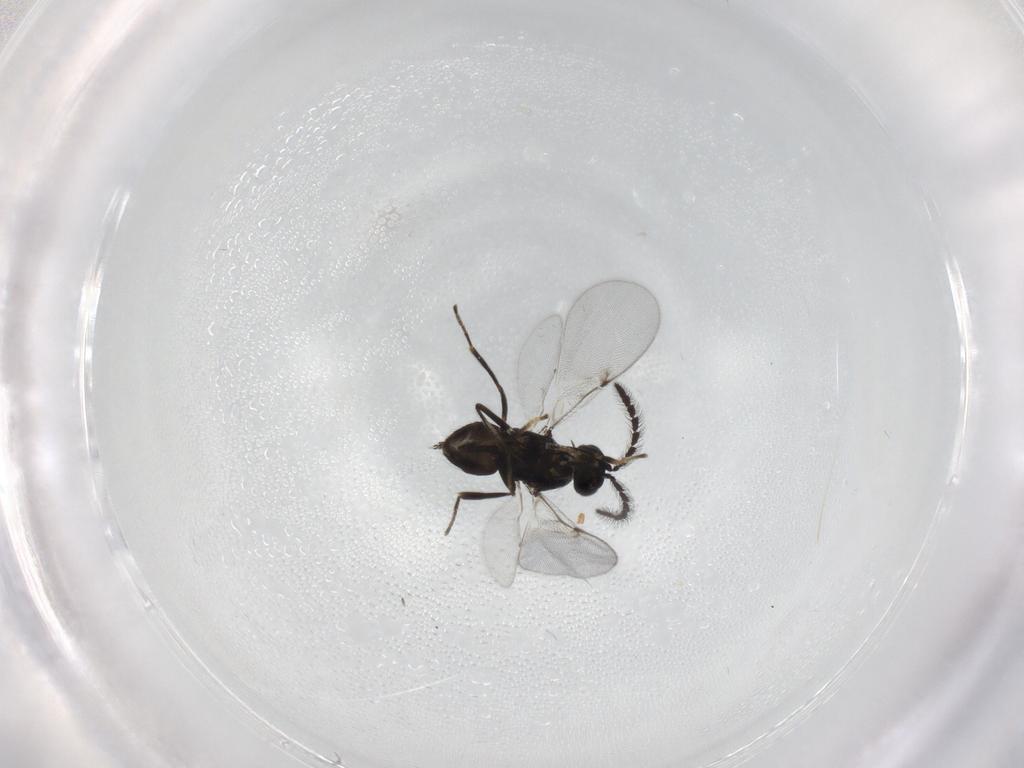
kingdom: Animalia
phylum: Arthropoda
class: Insecta
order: Hymenoptera
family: Encyrtidae
